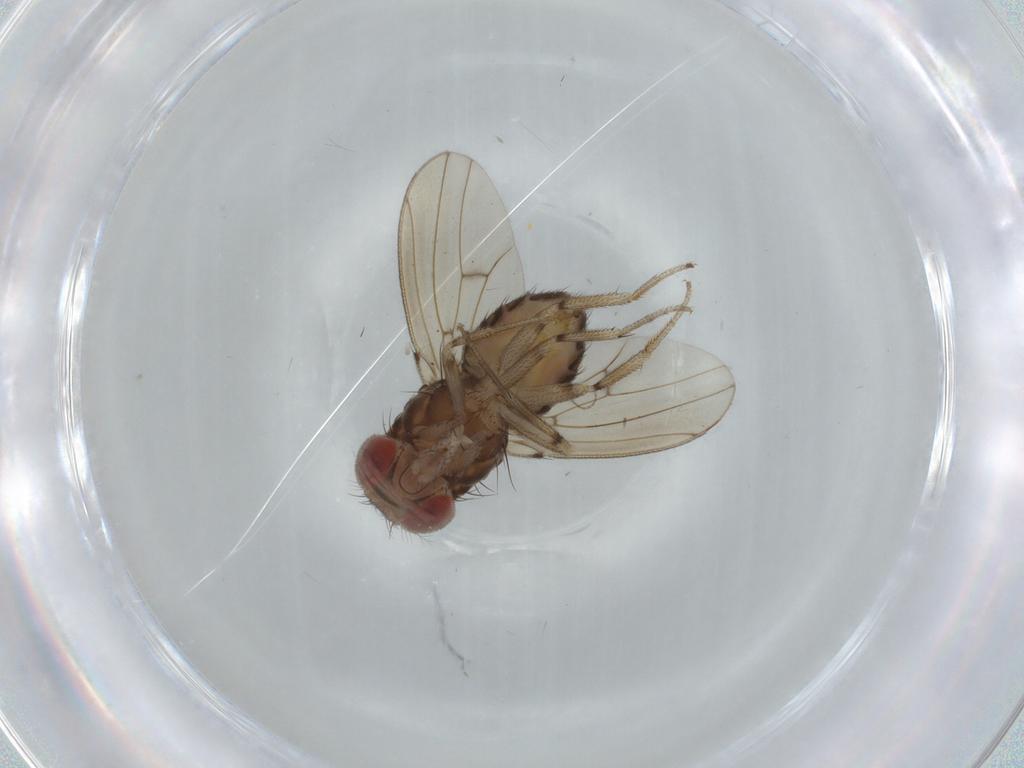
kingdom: Animalia
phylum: Arthropoda
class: Insecta
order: Diptera
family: Drosophilidae
